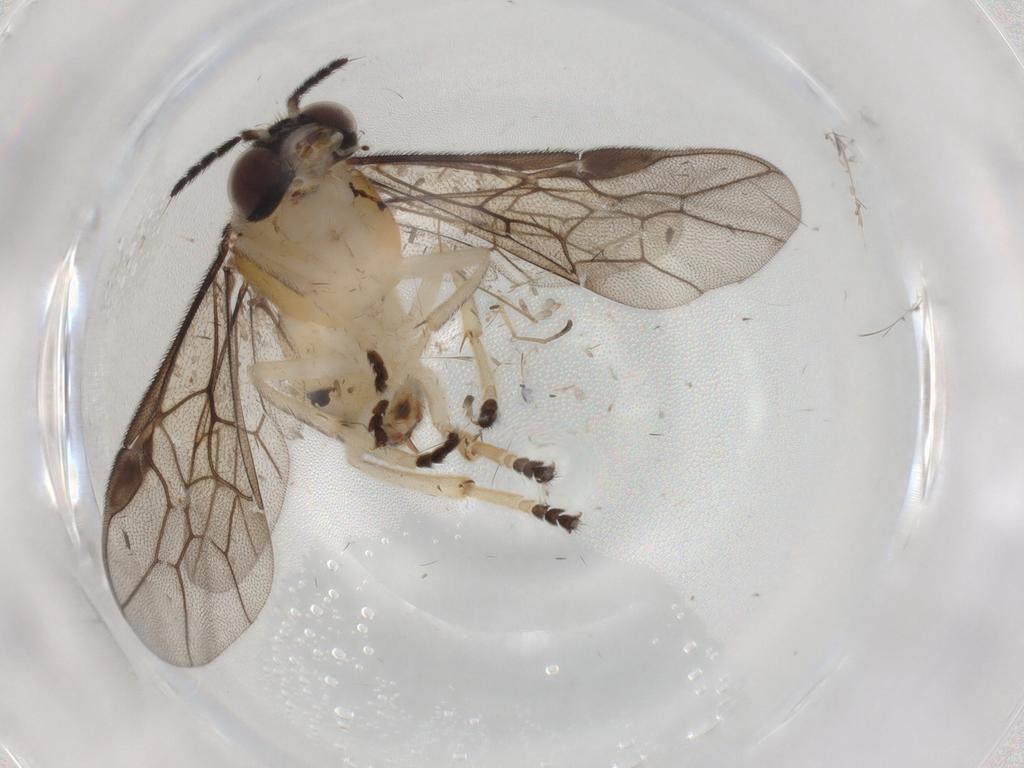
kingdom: Animalia
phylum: Arthropoda
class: Insecta
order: Hymenoptera
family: Pergidae
